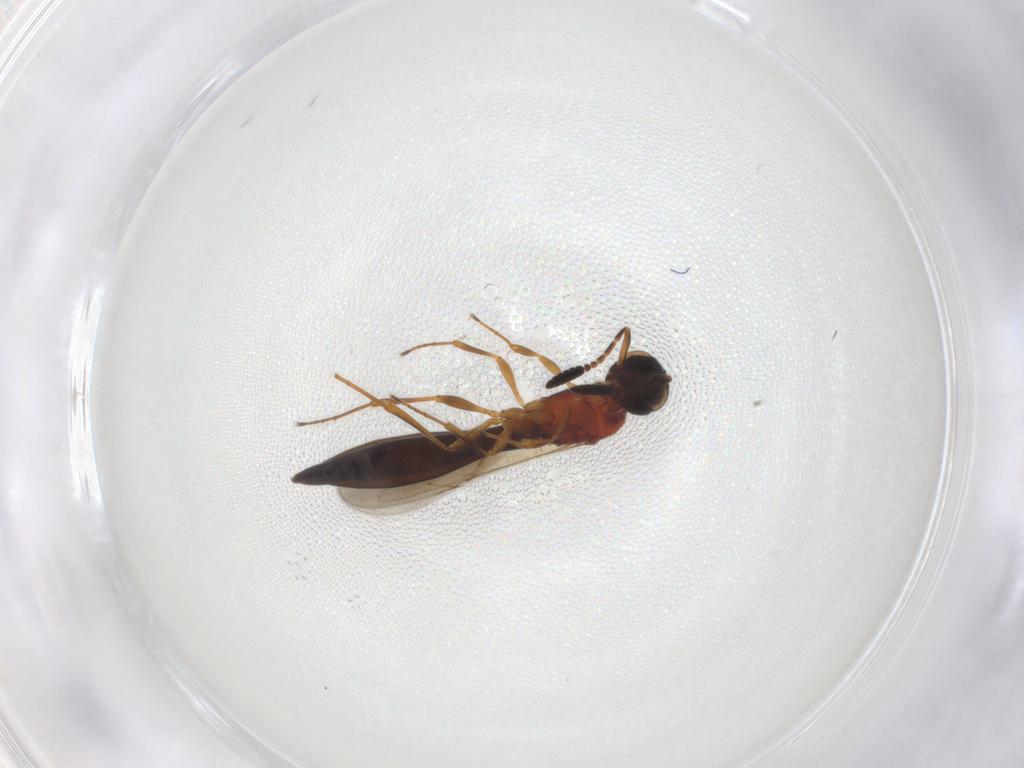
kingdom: Animalia
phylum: Arthropoda
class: Insecta
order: Hymenoptera
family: Scelionidae
